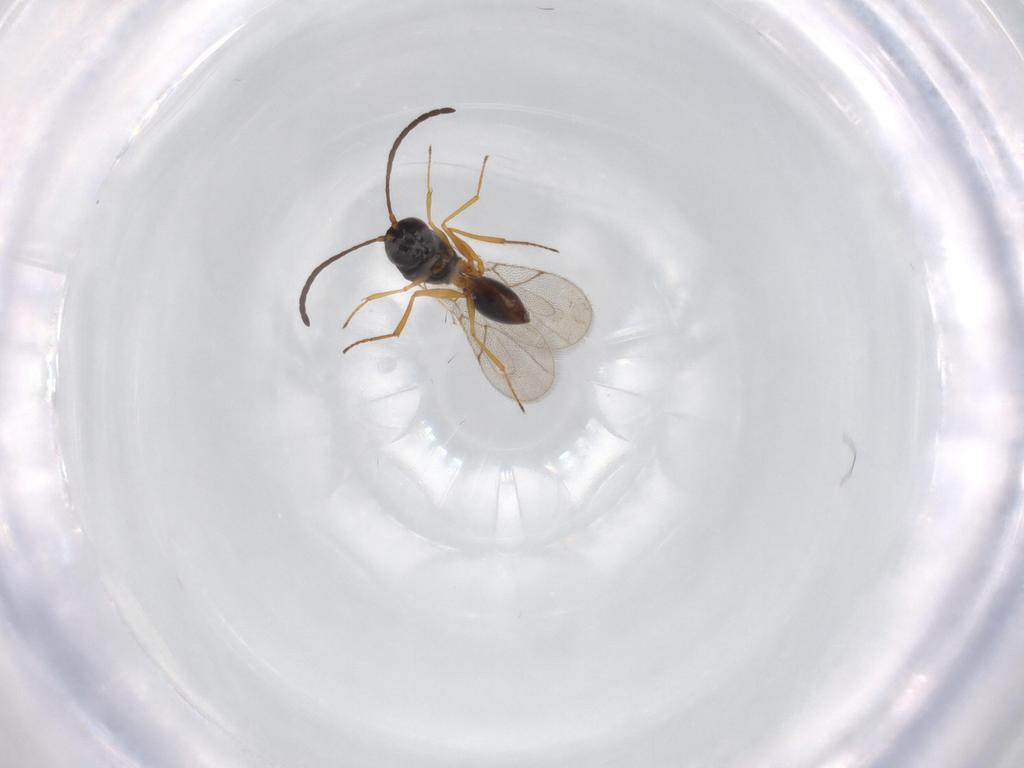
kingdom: Animalia
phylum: Arthropoda
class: Insecta
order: Hymenoptera
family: Figitidae
